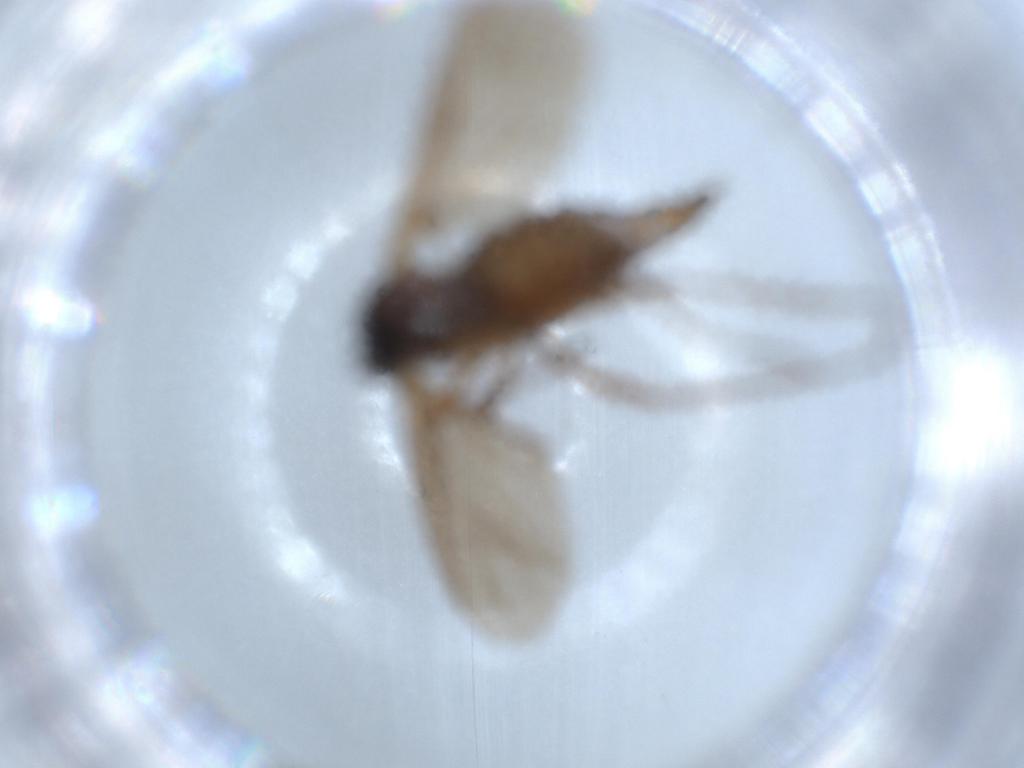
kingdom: Animalia
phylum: Arthropoda
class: Insecta
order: Diptera
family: Sciaridae
